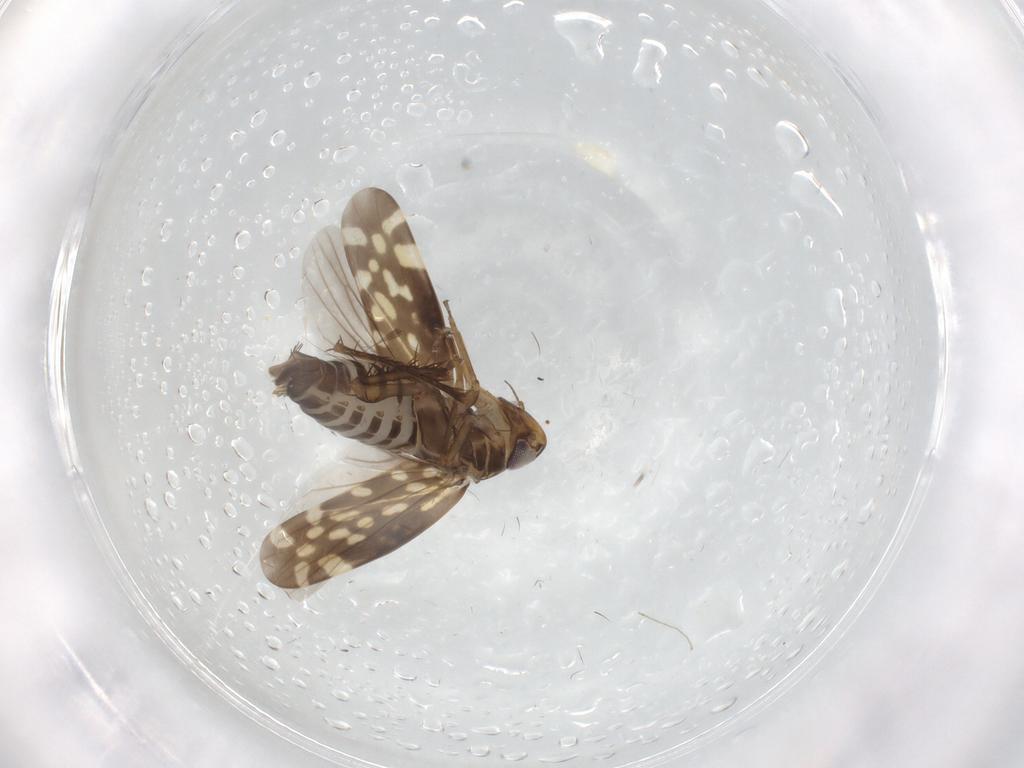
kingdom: Animalia
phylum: Arthropoda
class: Insecta
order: Hemiptera
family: Cicadellidae
